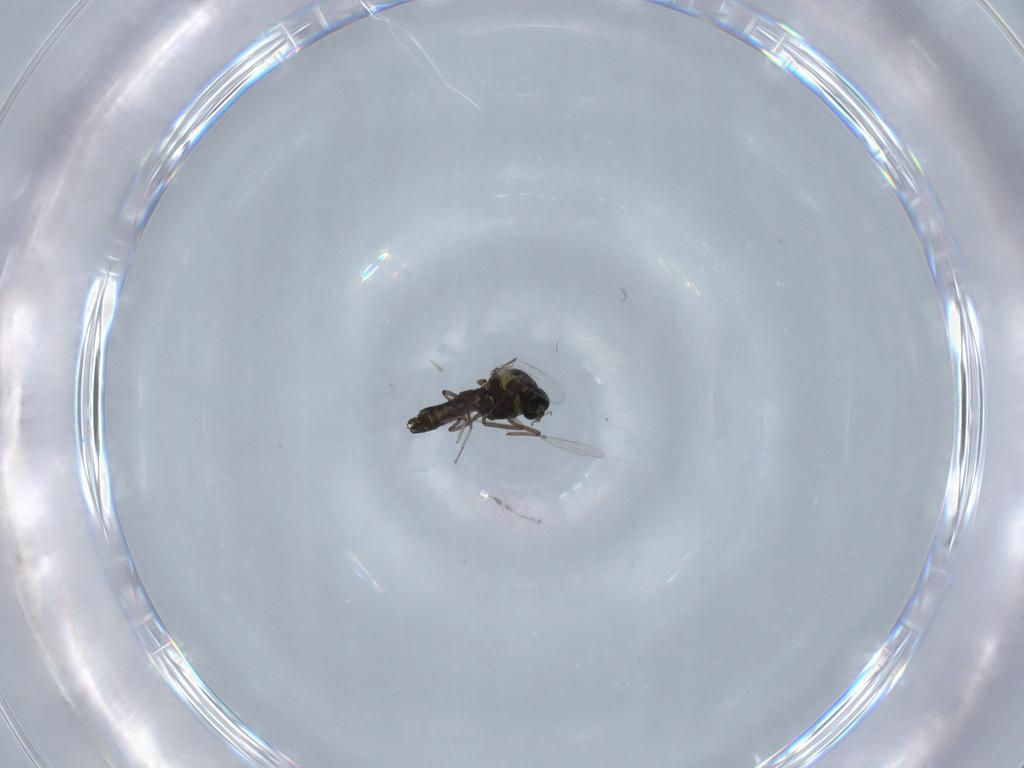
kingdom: Animalia
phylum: Arthropoda
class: Insecta
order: Diptera
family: Ceratopogonidae
